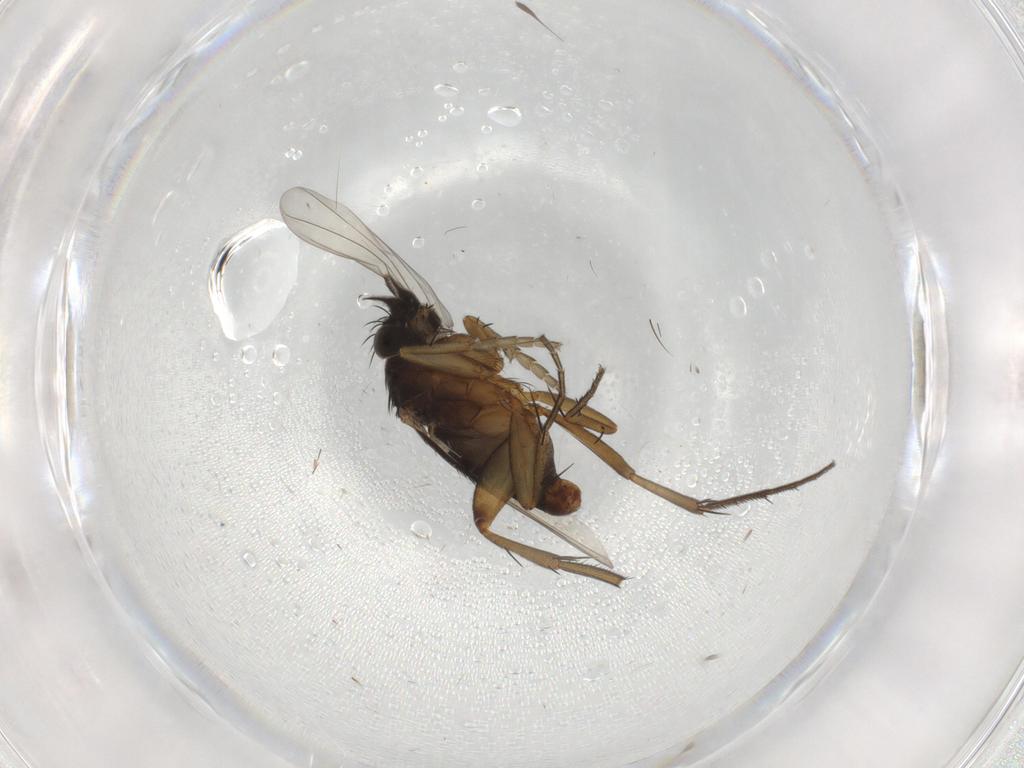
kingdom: Animalia
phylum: Arthropoda
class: Insecta
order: Diptera
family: Phoridae
